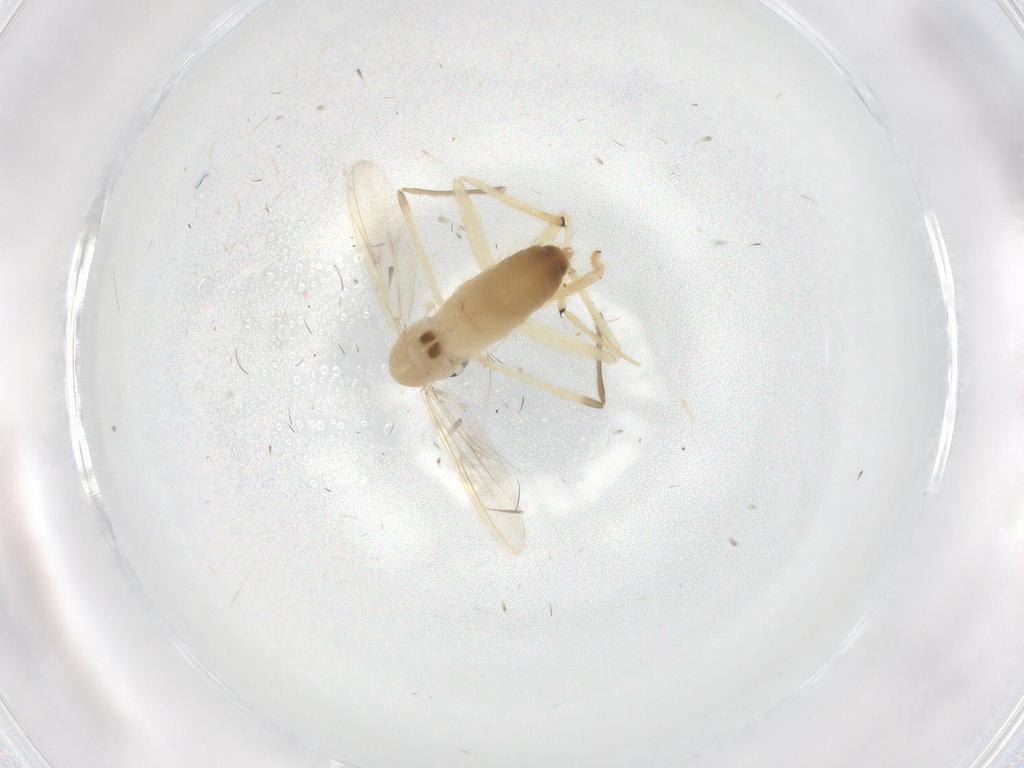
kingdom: Animalia
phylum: Arthropoda
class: Insecta
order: Diptera
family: Chironomidae
